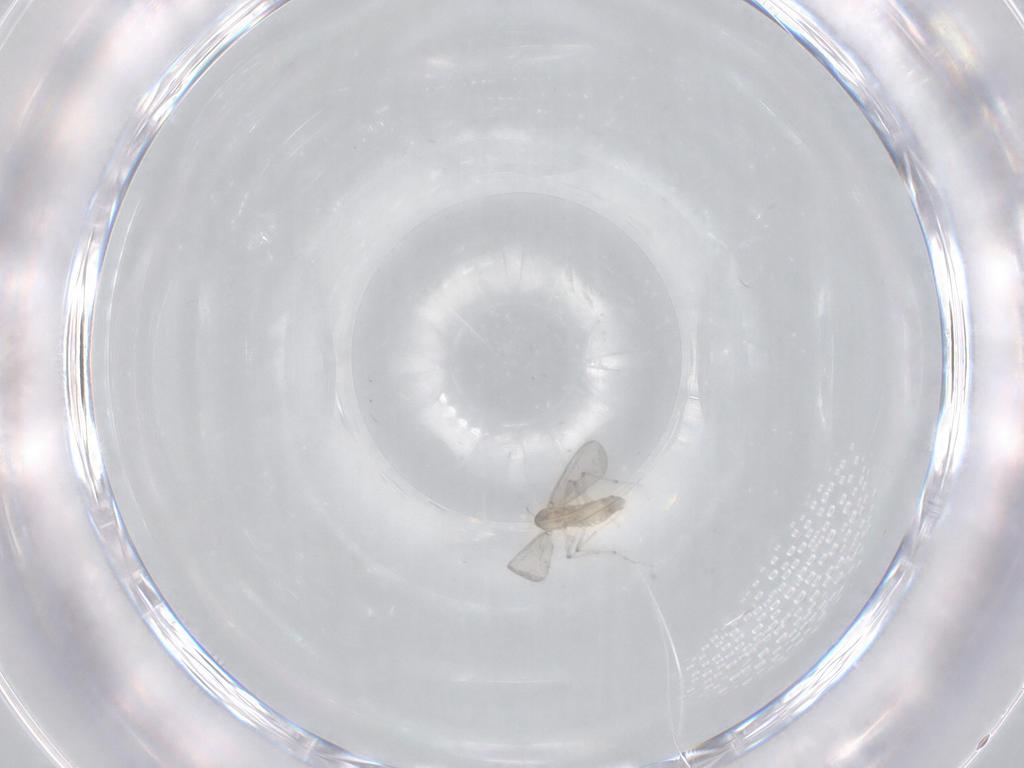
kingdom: Animalia
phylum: Arthropoda
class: Insecta
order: Diptera
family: Chironomidae
